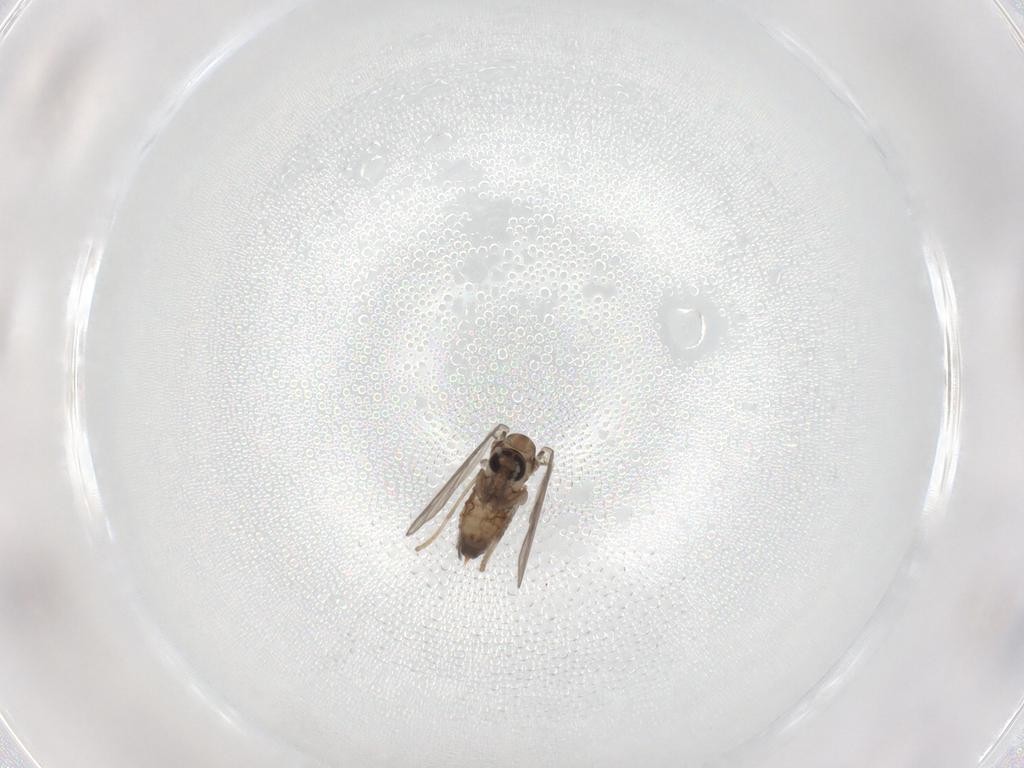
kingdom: Animalia
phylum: Arthropoda
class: Insecta
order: Diptera
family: Psychodidae
